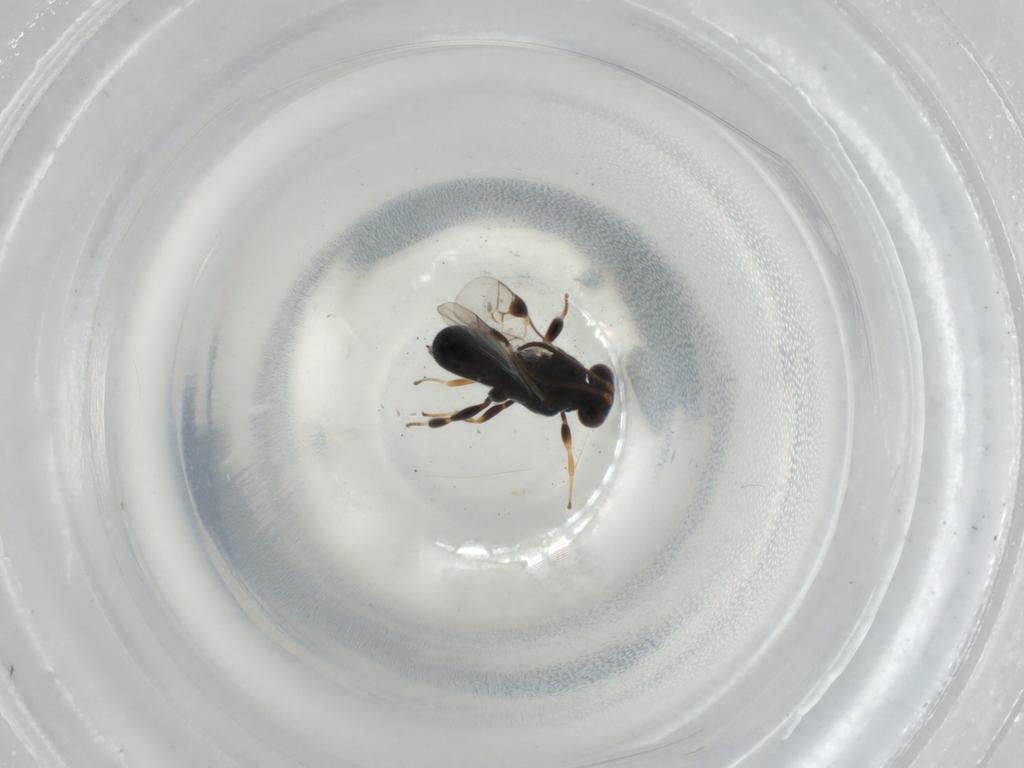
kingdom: Animalia
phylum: Arthropoda
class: Insecta
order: Hymenoptera
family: Braconidae
